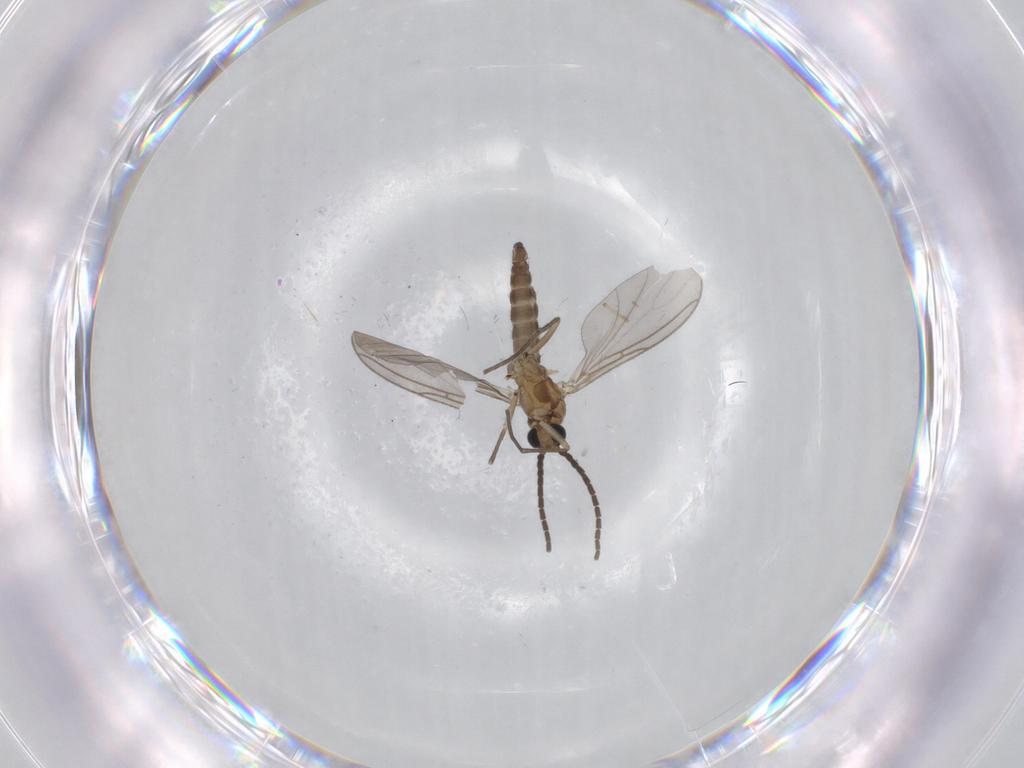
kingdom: Animalia
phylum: Arthropoda
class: Insecta
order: Diptera
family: Sciaridae
